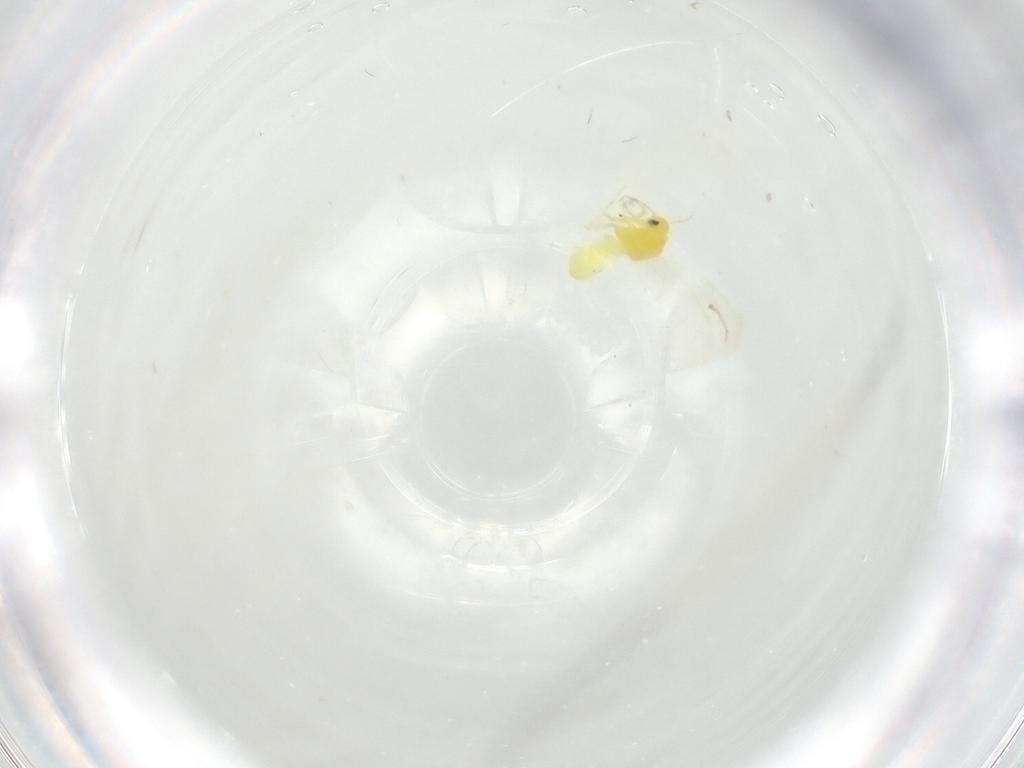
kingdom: Animalia
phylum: Arthropoda
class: Insecta
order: Hemiptera
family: Aleyrodidae
